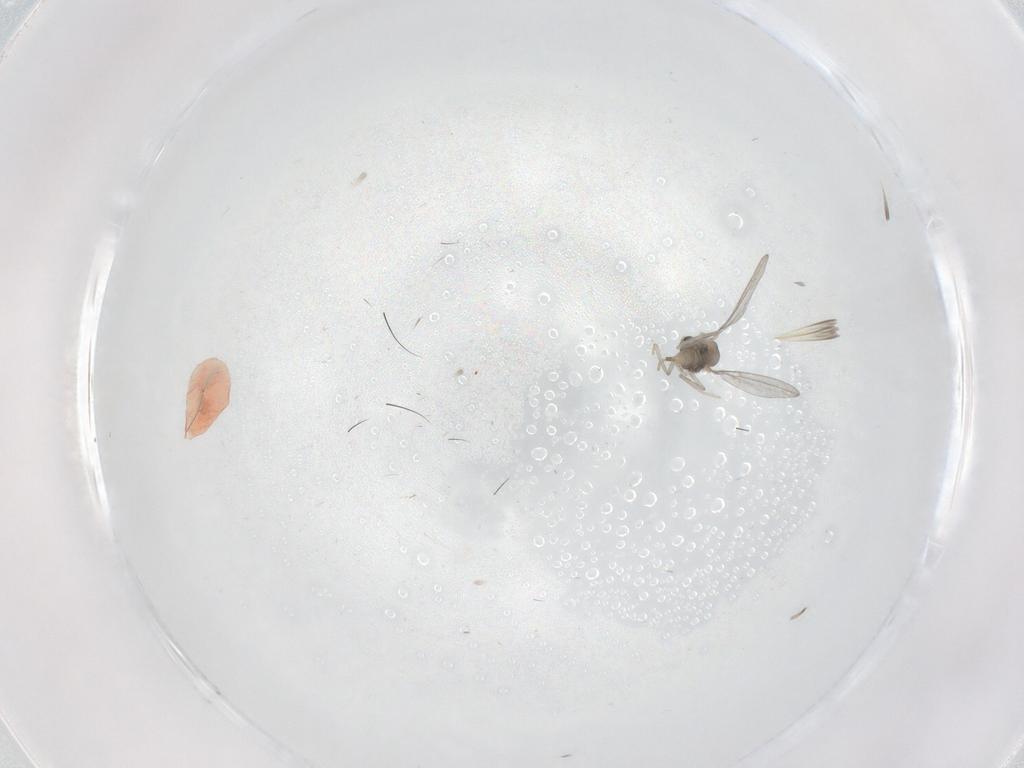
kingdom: Animalia
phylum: Arthropoda
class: Insecta
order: Diptera
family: Cecidomyiidae
